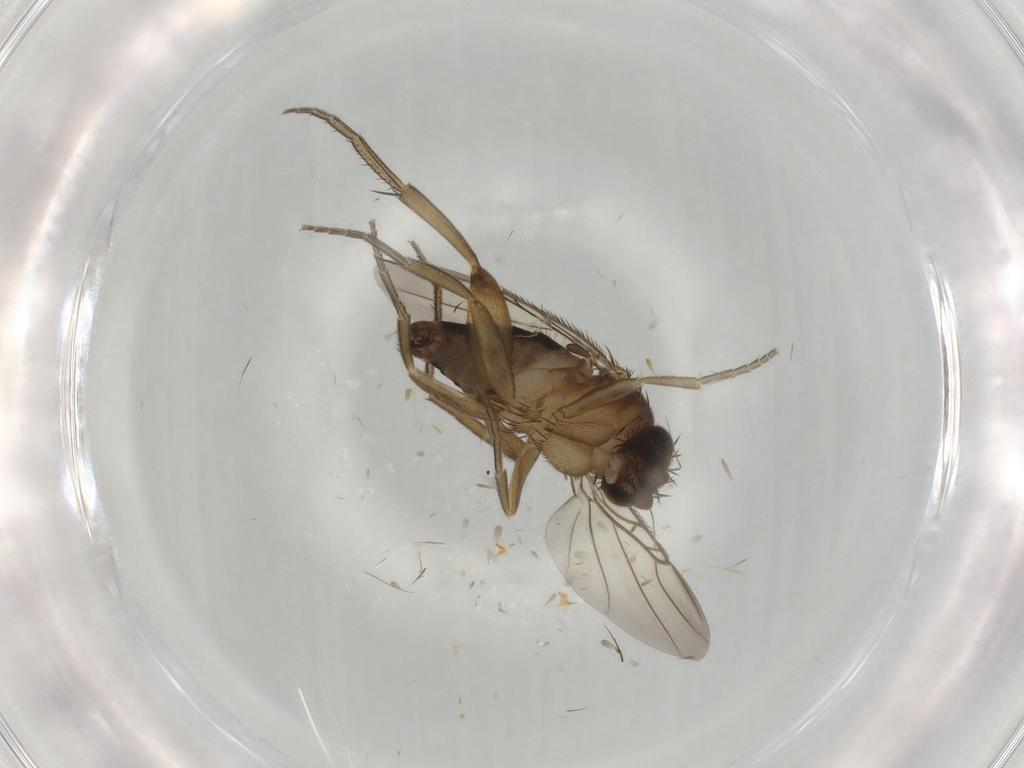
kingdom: Animalia
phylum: Arthropoda
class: Insecta
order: Diptera
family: Phoridae
